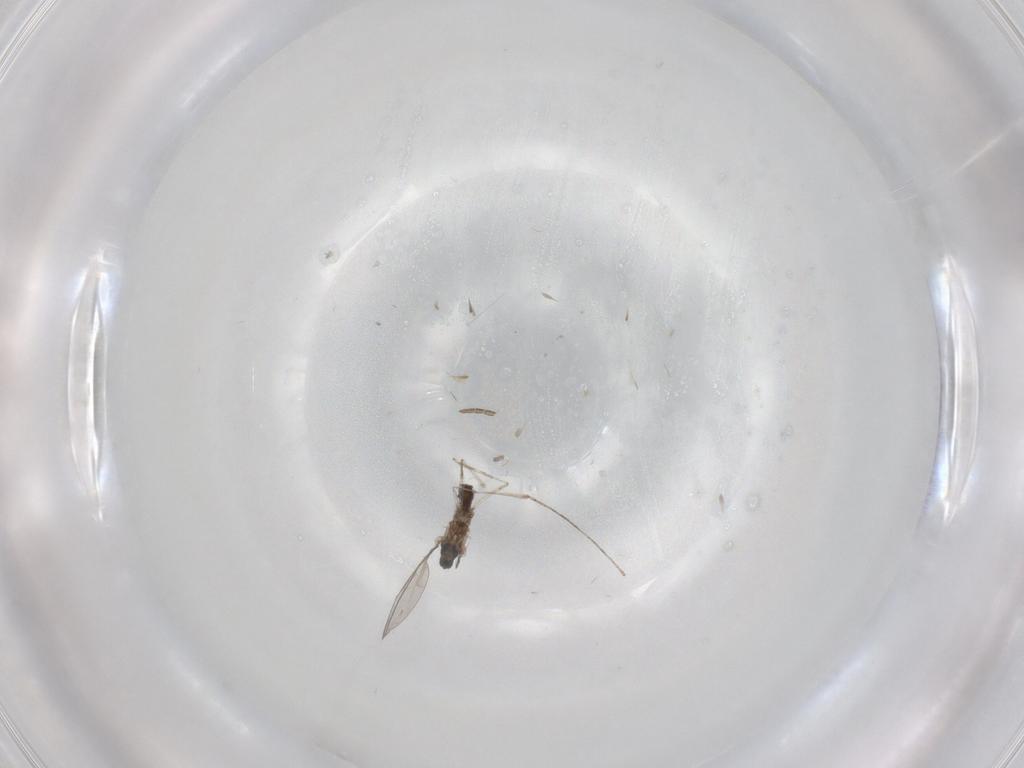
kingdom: Animalia
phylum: Arthropoda
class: Insecta
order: Diptera
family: Cecidomyiidae
